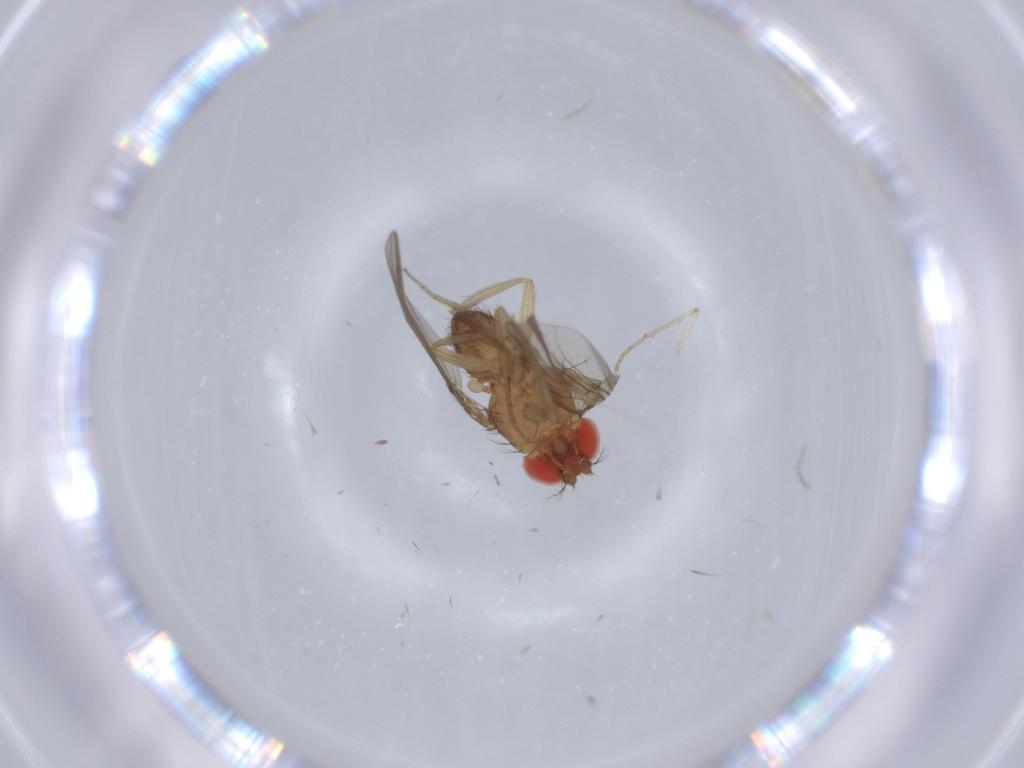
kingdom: Animalia
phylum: Arthropoda
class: Insecta
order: Diptera
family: Drosophilidae
